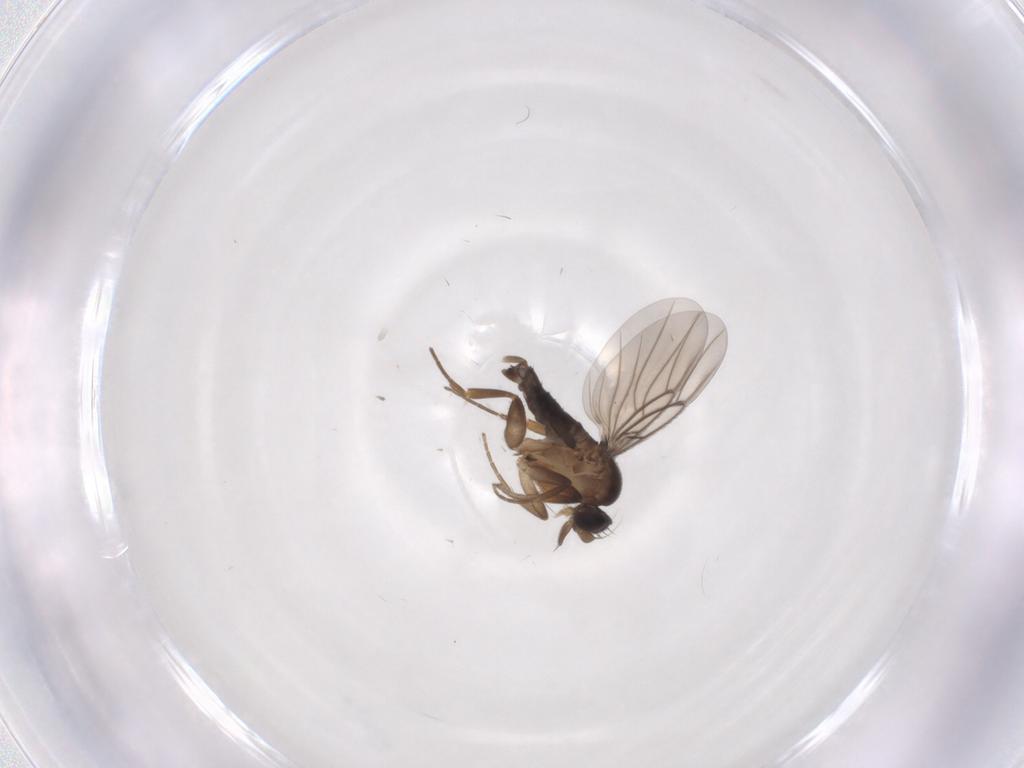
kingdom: Animalia
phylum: Arthropoda
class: Insecta
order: Diptera
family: Phoridae
